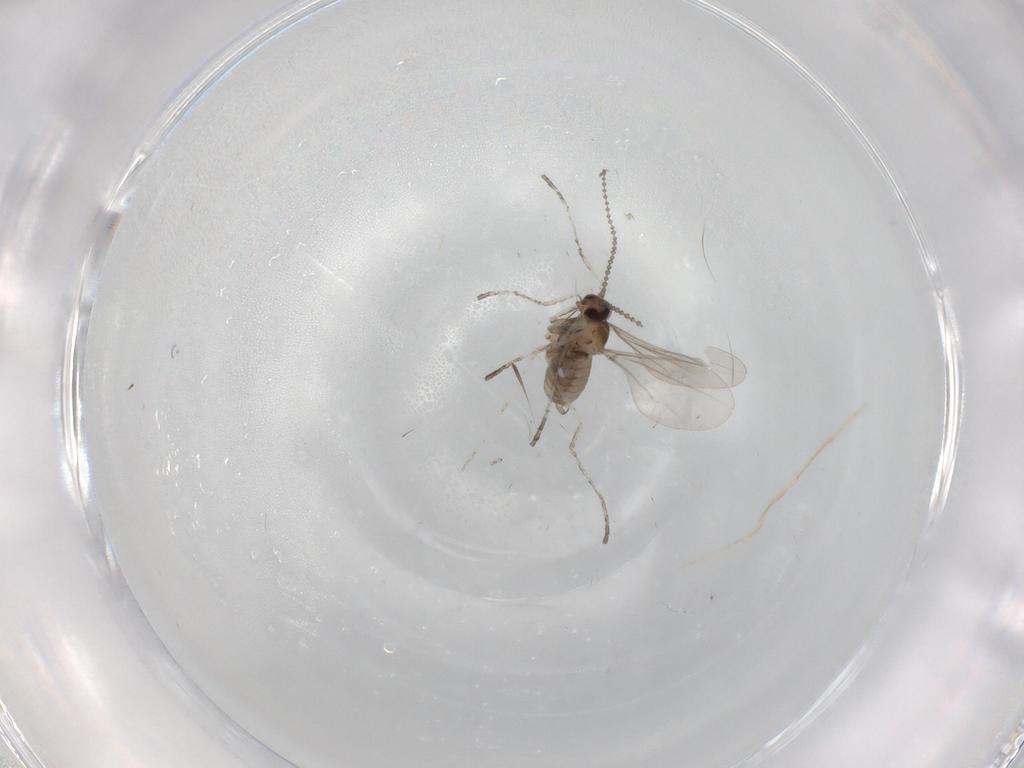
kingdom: Animalia
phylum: Arthropoda
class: Insecta
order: Diptera
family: Cecidomyiidae
